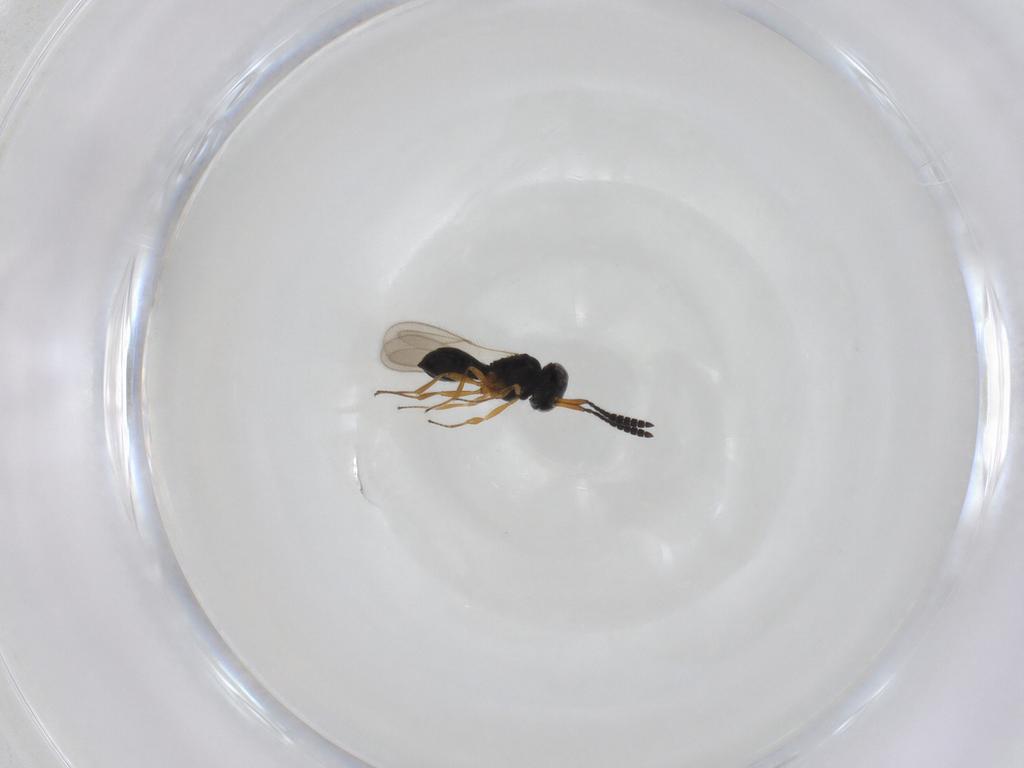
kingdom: Animalia
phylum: Arthropoda
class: Insecta
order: Hymenoptera
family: Scelionidae
